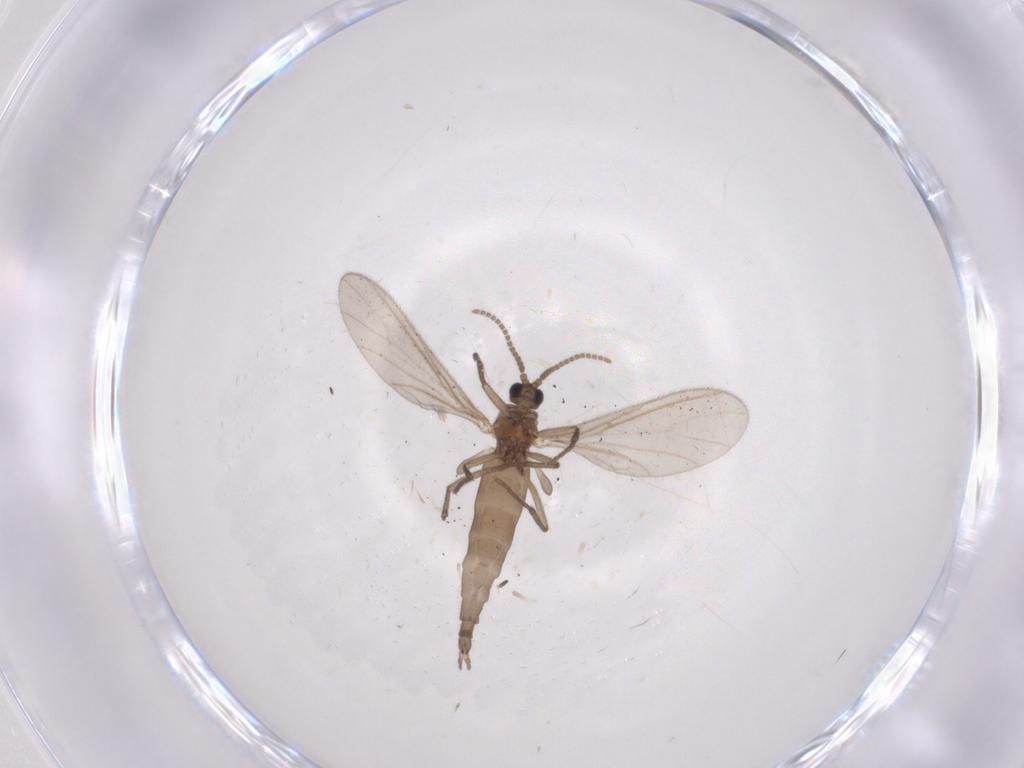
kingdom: Animalia
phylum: Arthropoda
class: Insecta
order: Diptera
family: Sciaridae
